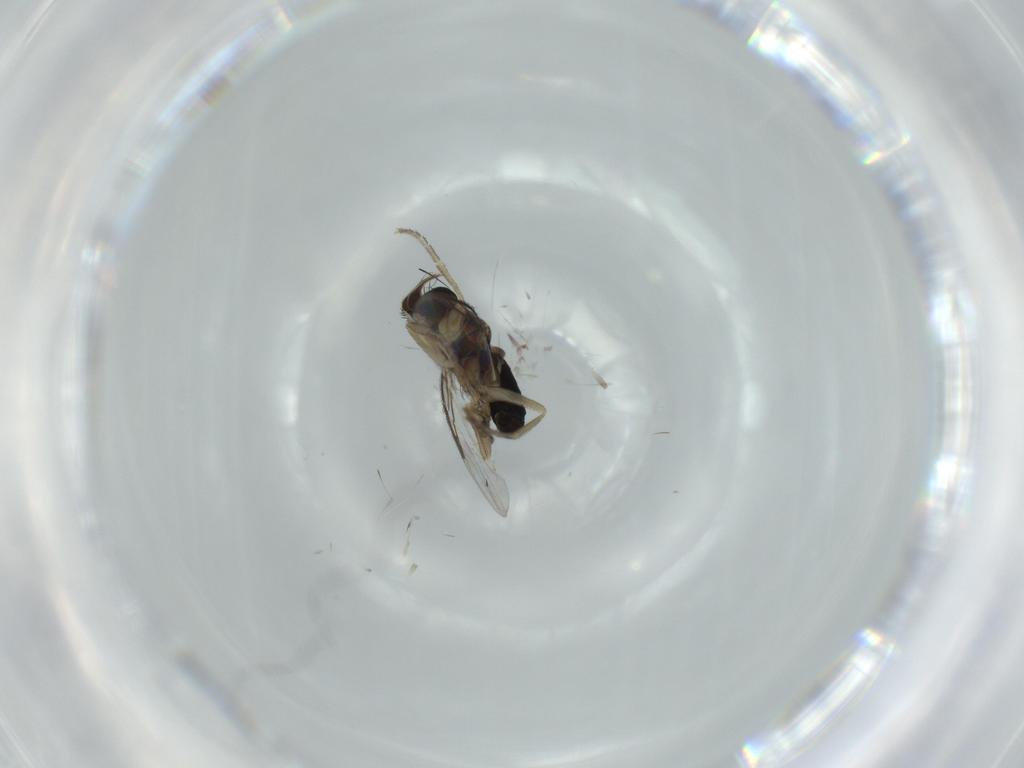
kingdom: Animalia
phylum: Arthropoda
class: Insecta
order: Diptera
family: Phoridae
